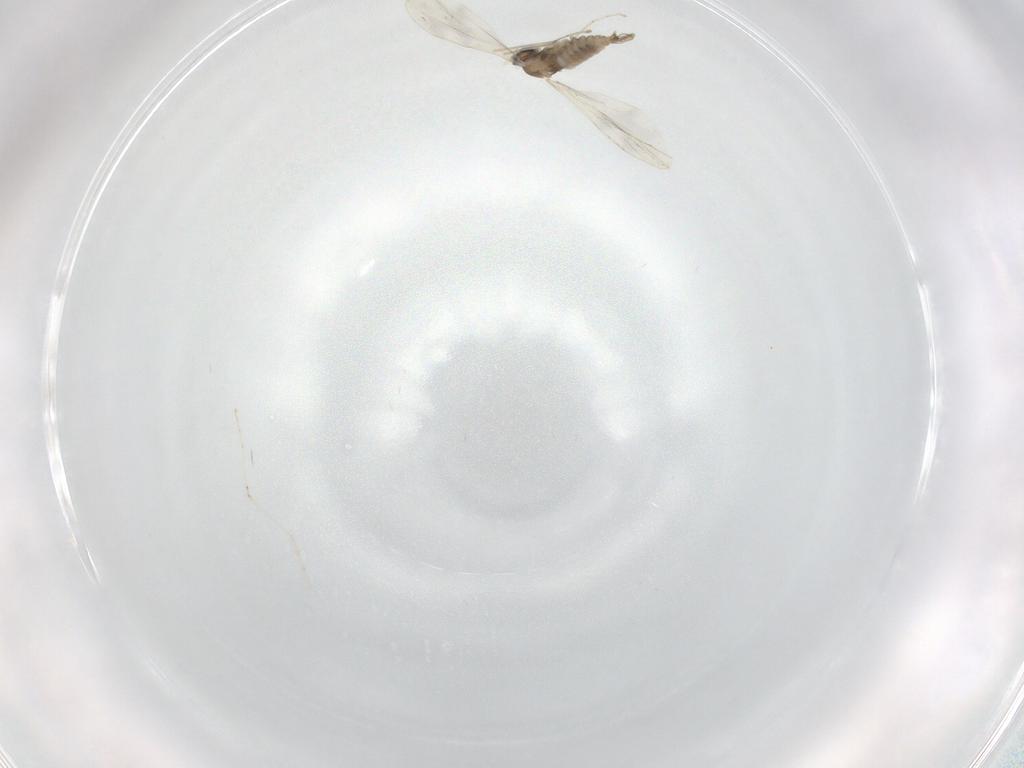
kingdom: Animalia
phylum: Arthropoda
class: Insecta
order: Diptera
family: Cecidomyiidae
